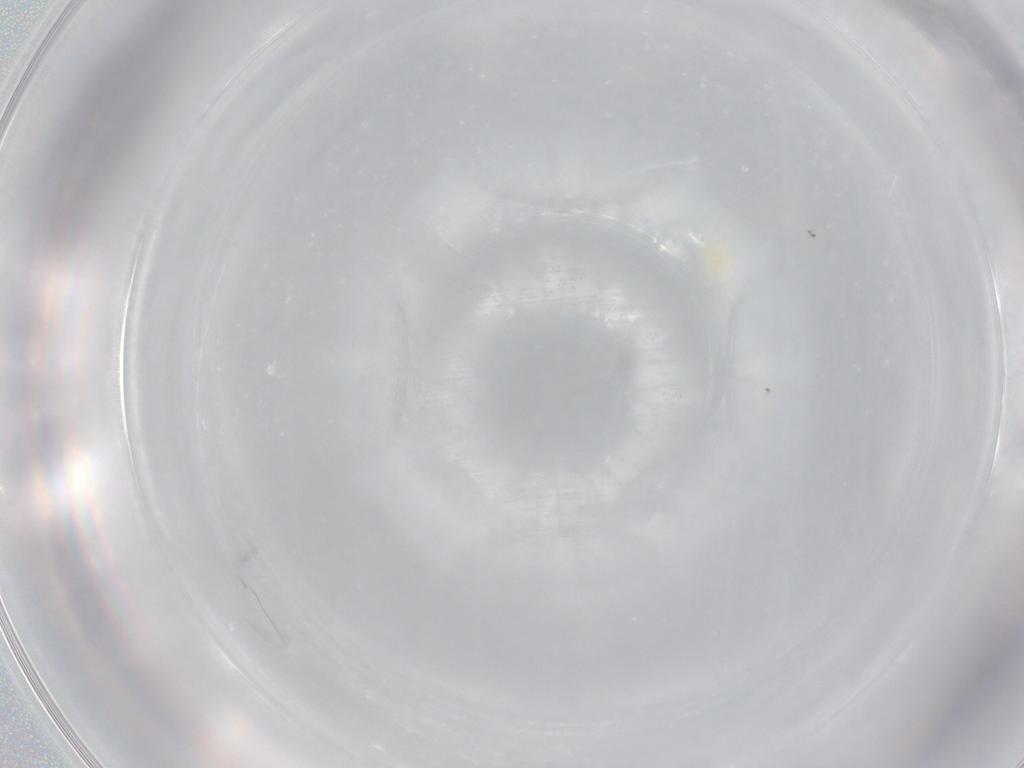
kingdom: Animalia
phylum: Arthropoda
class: Arachnida
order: Trombidiformes
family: Tetranychidae
